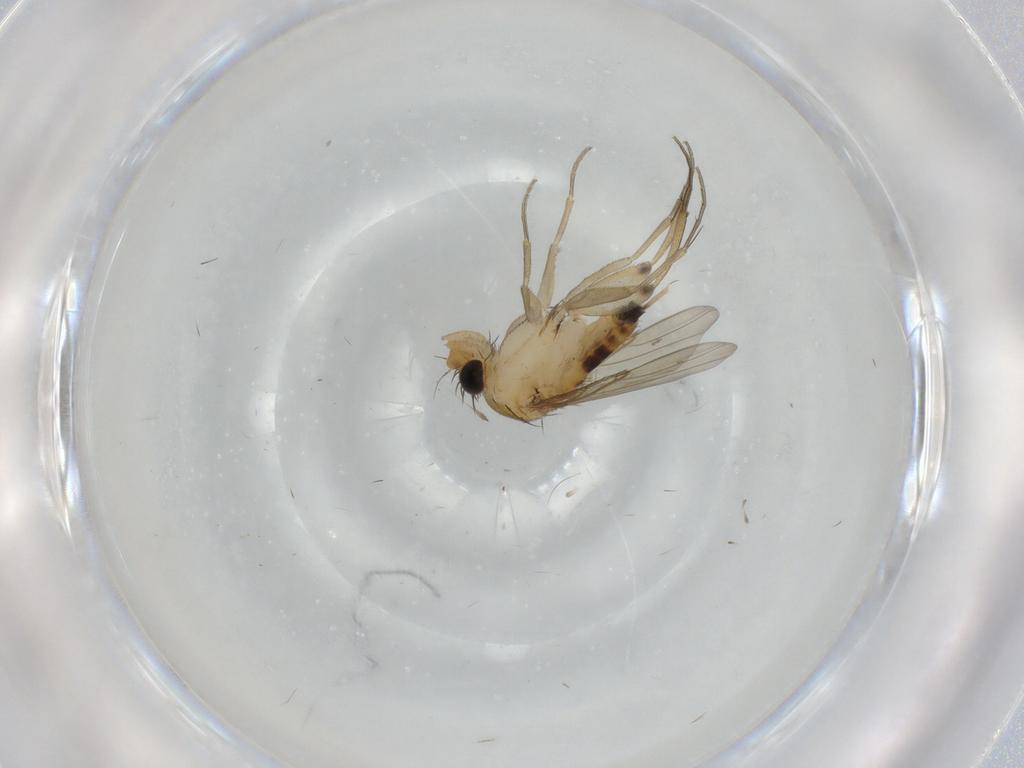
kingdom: Animalia
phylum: Arthropoda
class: Insecta
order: Diptera
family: Phoridae
